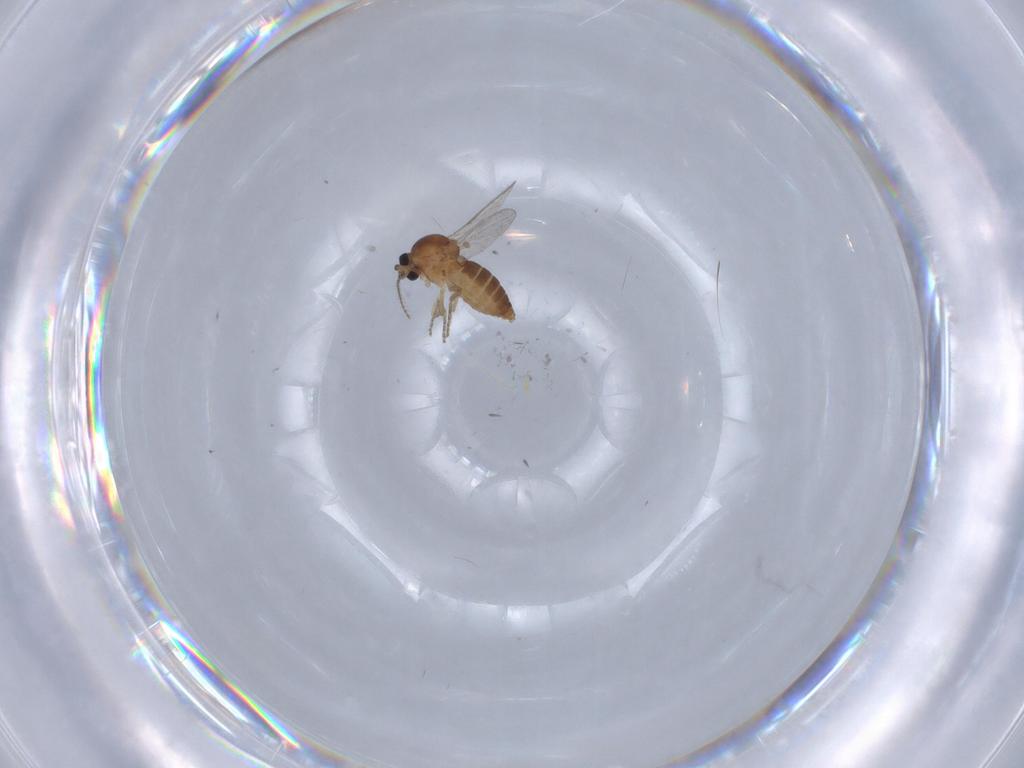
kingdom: Animalia
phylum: Arthropoda
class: Insecta
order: Diptera
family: Ceratopogonidae
